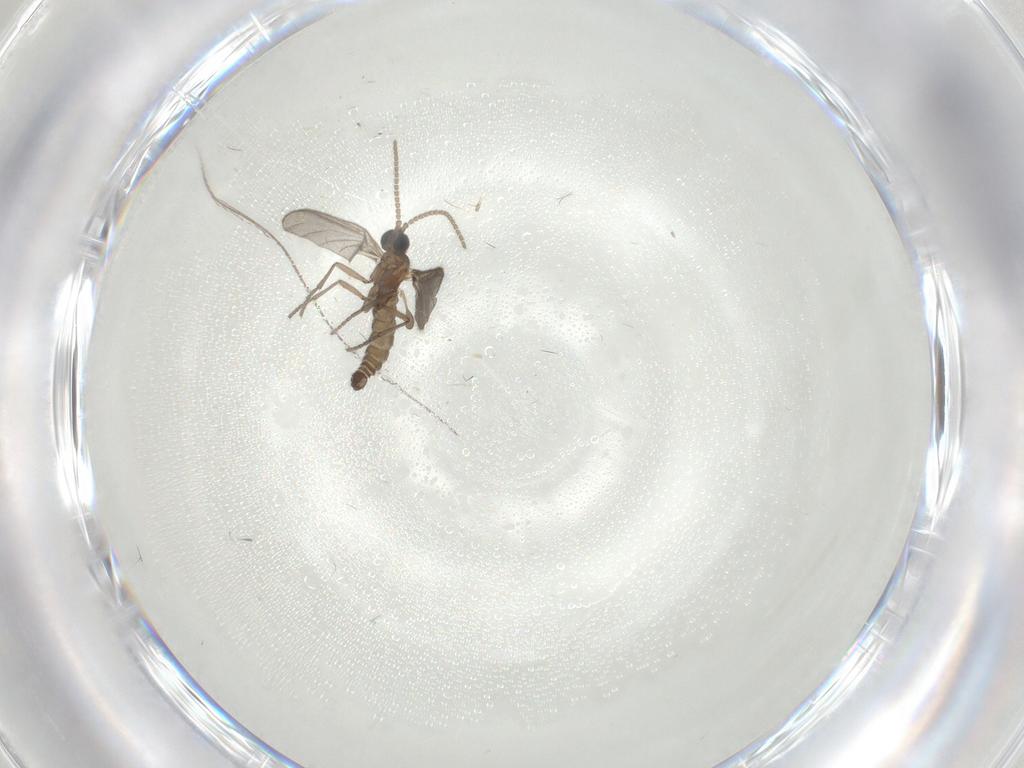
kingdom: Animalia
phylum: Arthropoda
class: Insecta
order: Diptera
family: Sciaridae
